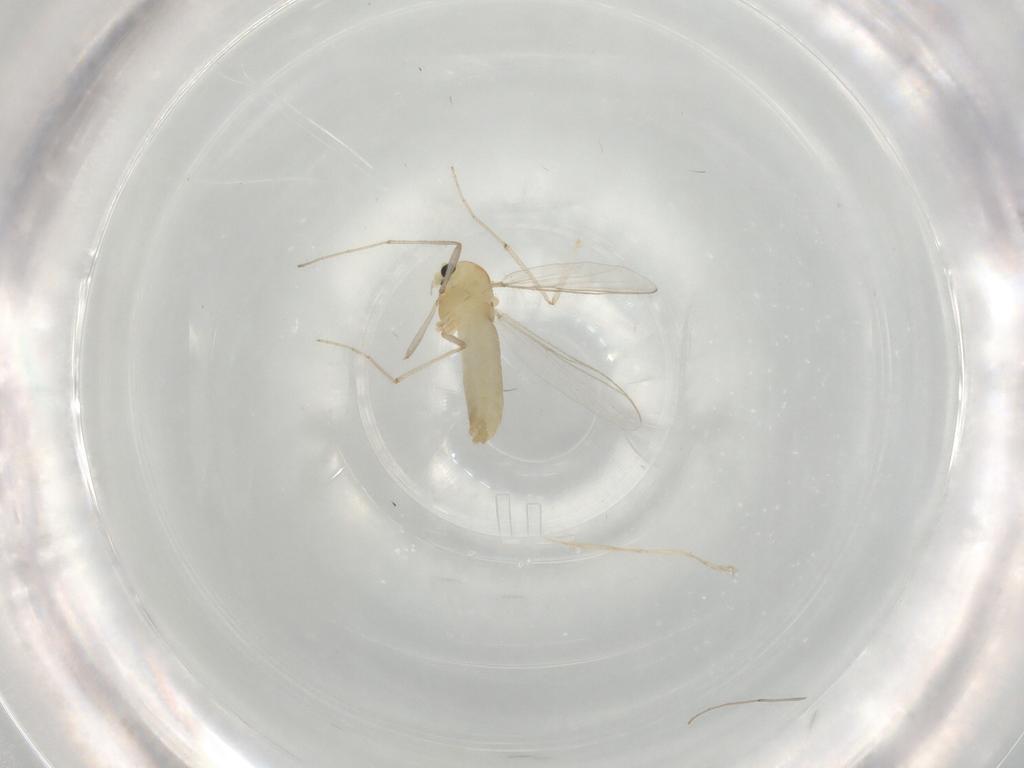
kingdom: Animalia
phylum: Arthropoda
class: Insecta
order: Diptera
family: Chironomidae
